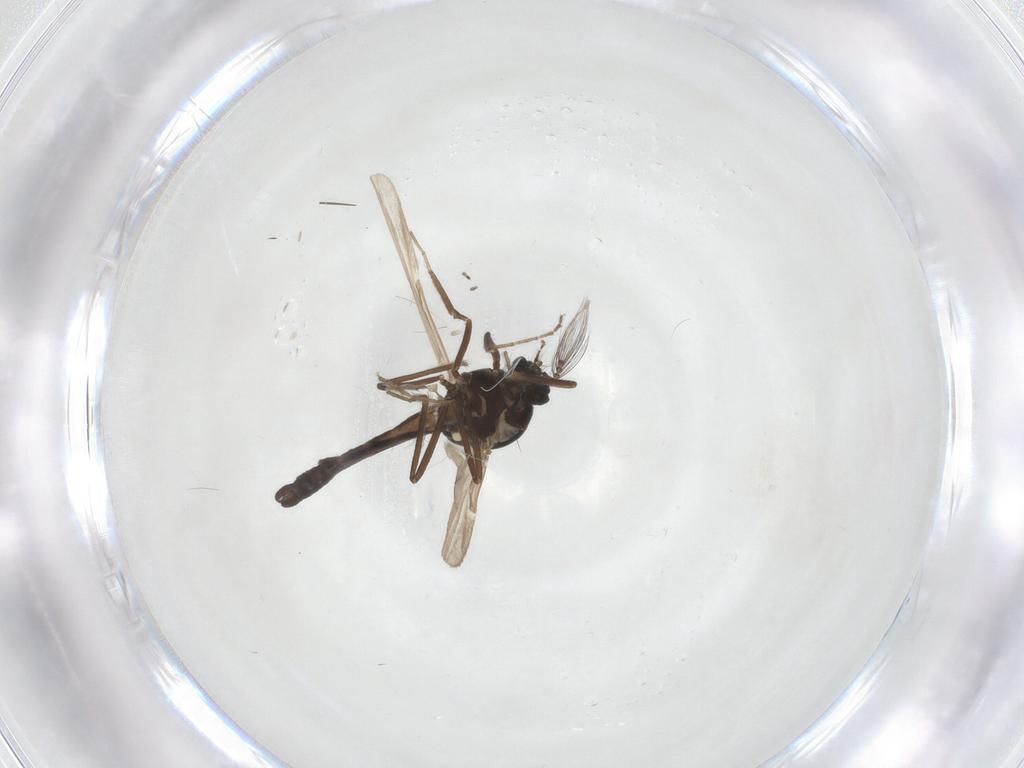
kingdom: Animalia
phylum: Arthropoda
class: Insecta
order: Diptera
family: Ceratopogonidae
